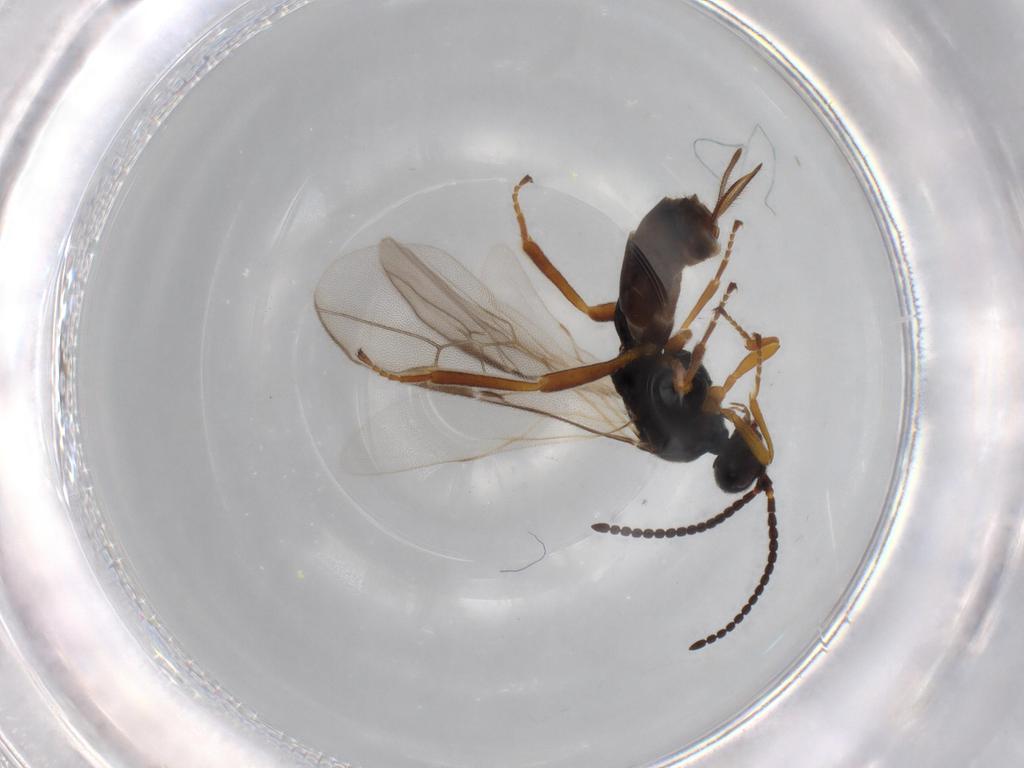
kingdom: Animalia
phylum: Arthropoda
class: Insecta
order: Hymenoptera
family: Braconidae
